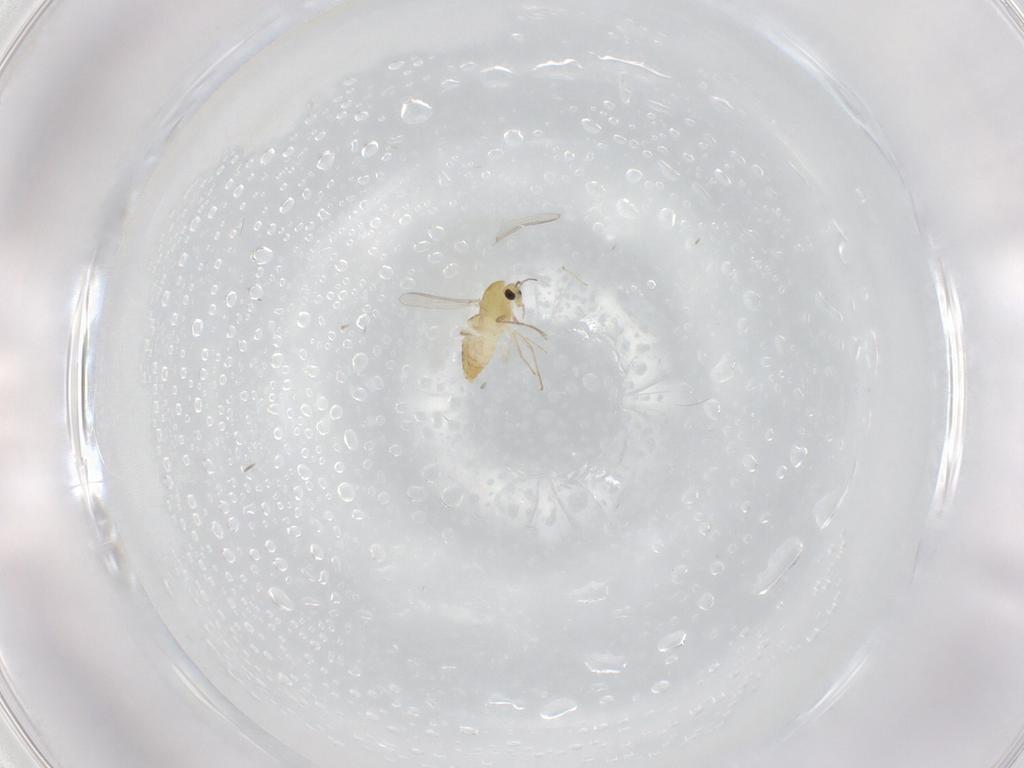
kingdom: Animalia
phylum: Arthropoda
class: Insecta
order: Diptera
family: Chironomidae
